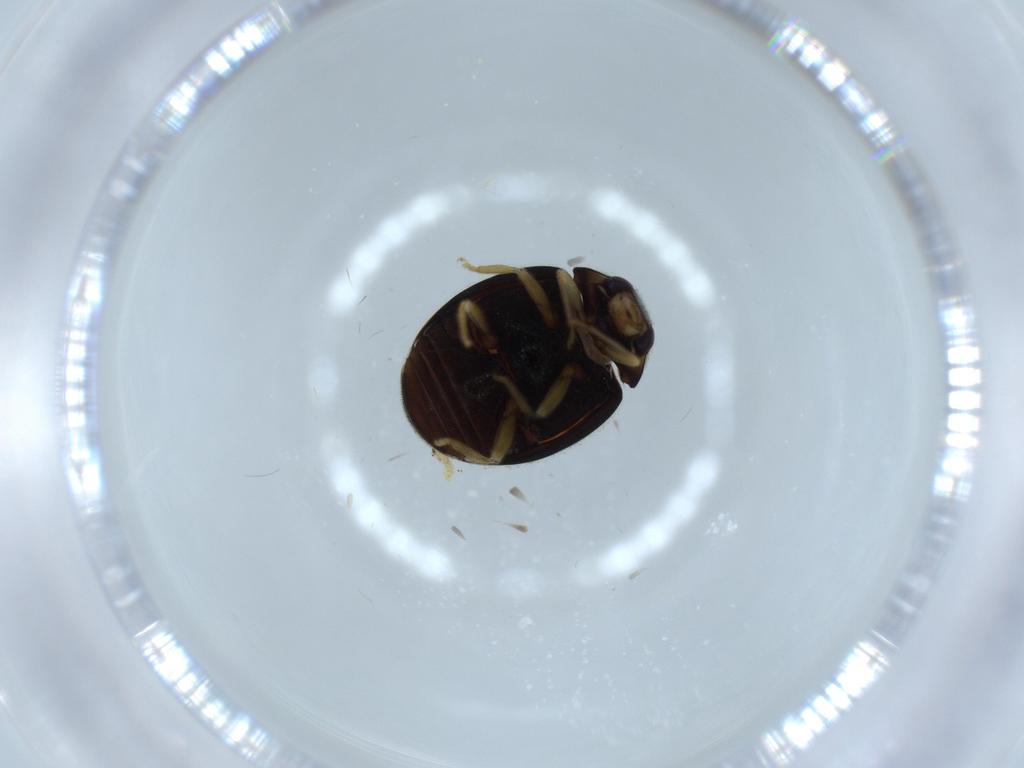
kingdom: Animalia
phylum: Arthropoda
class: Insecta
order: Coleoptera
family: Coccinellidae
